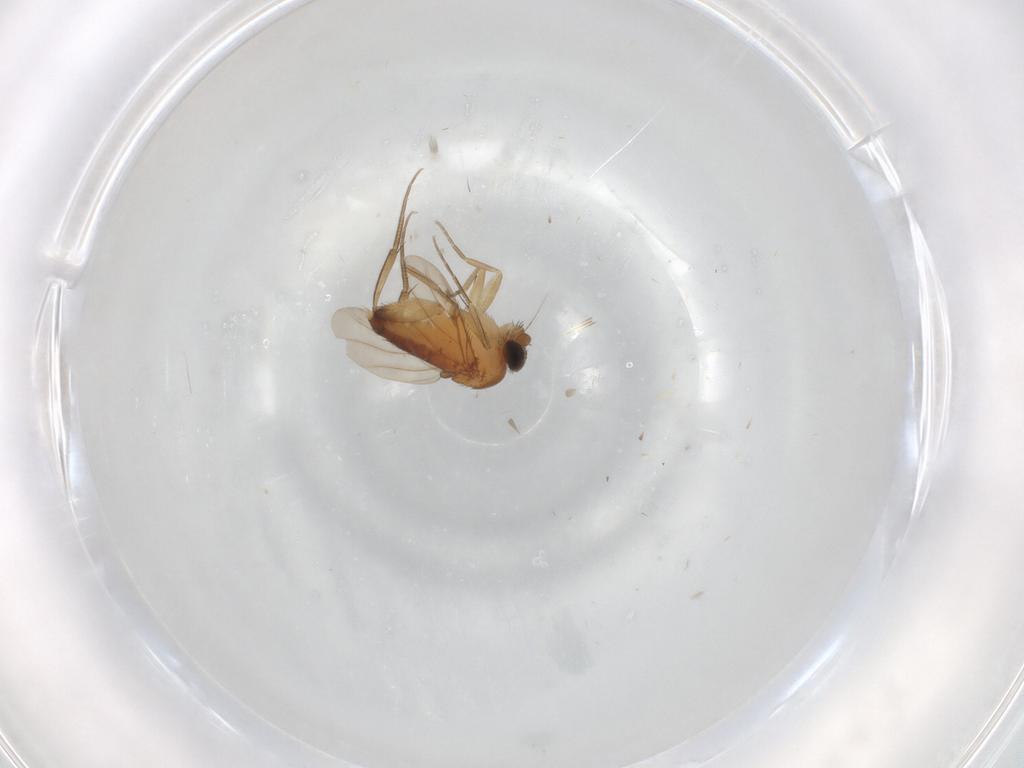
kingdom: Animalia
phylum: Arthropoda
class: Insecta
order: Diptera
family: Sphaeroceridae
